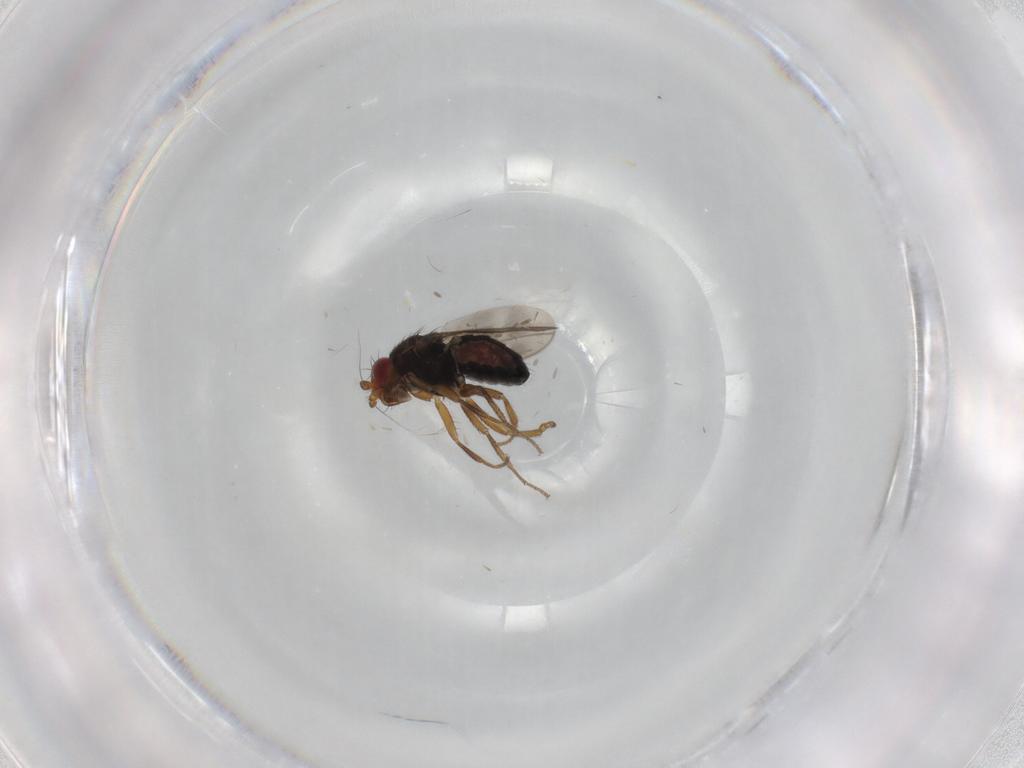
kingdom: Animalia
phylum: Arthropoda
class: Insecta
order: Diptera
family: Sphaeroceridae
